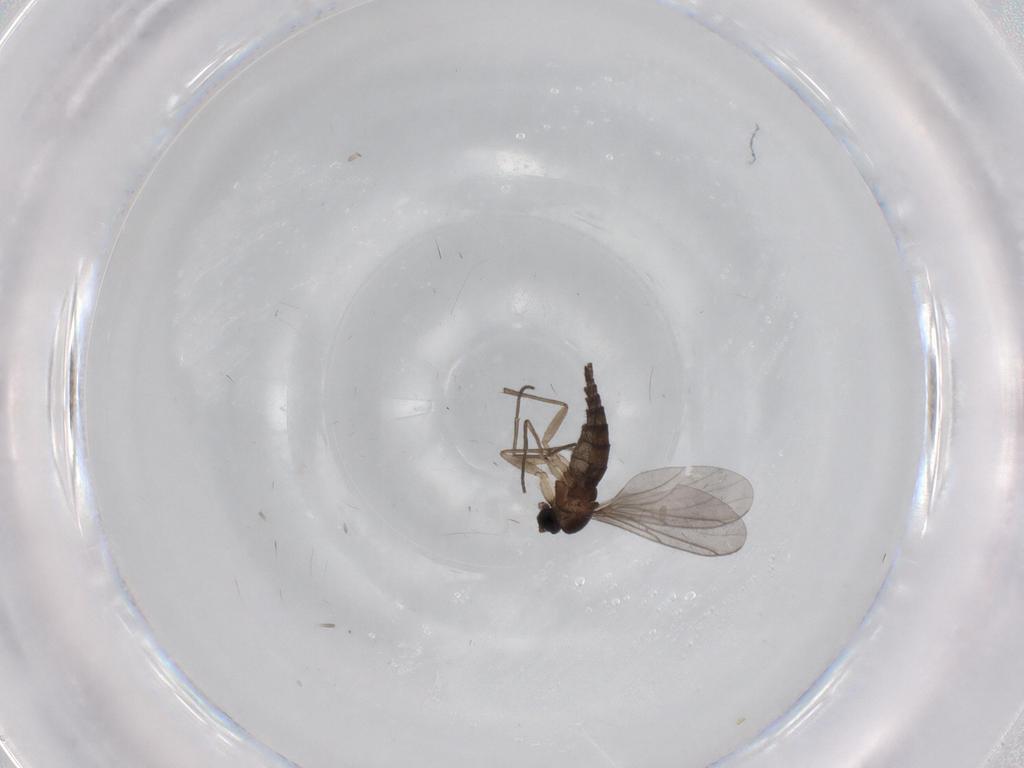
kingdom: Animalia
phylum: Arthropoda
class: Insecta
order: Diptera
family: Sciaridae
